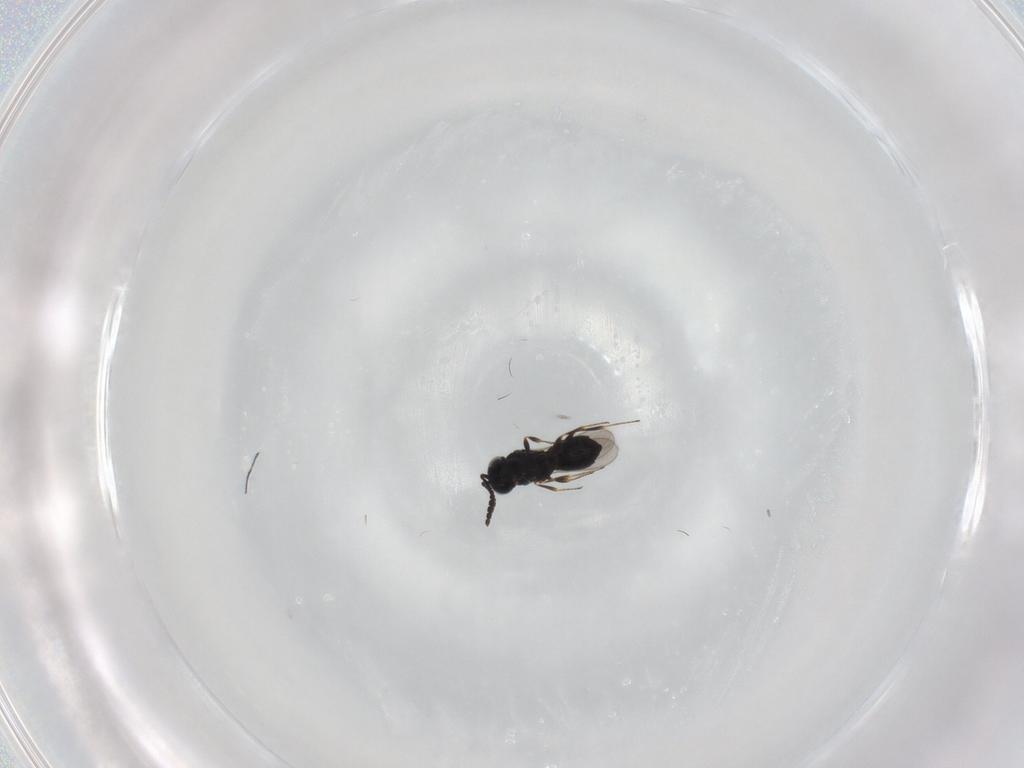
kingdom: Animalia
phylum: Arthropoda
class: Insecta
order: Hymenoptera
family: Scelionidae
